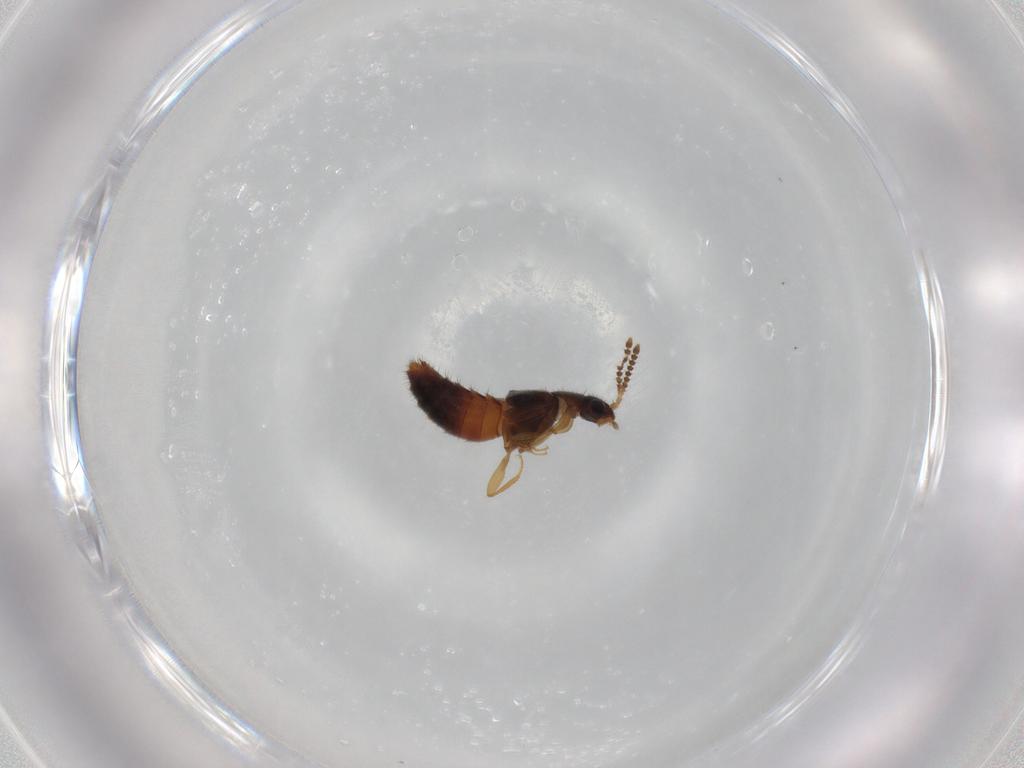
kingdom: Animalia
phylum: Arthropoda
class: Insecta
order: Coleoptera
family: Staphylinidae
